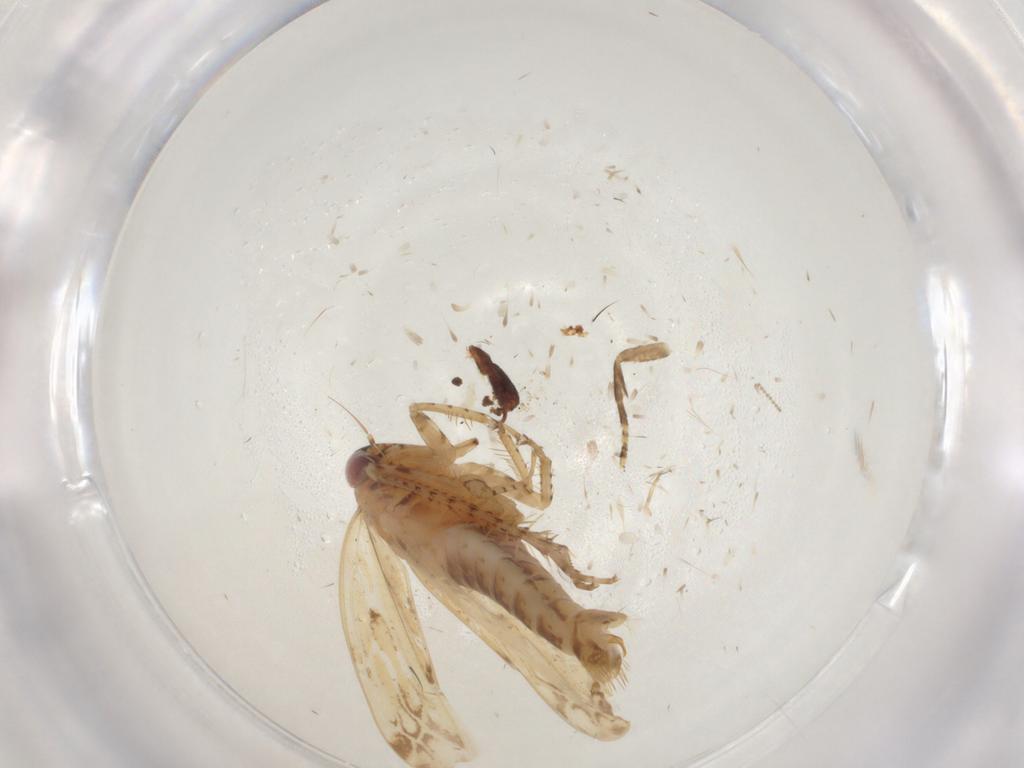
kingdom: Animalia
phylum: Arthropoda
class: Insecta
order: Hemiptera
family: Cicadellidae
